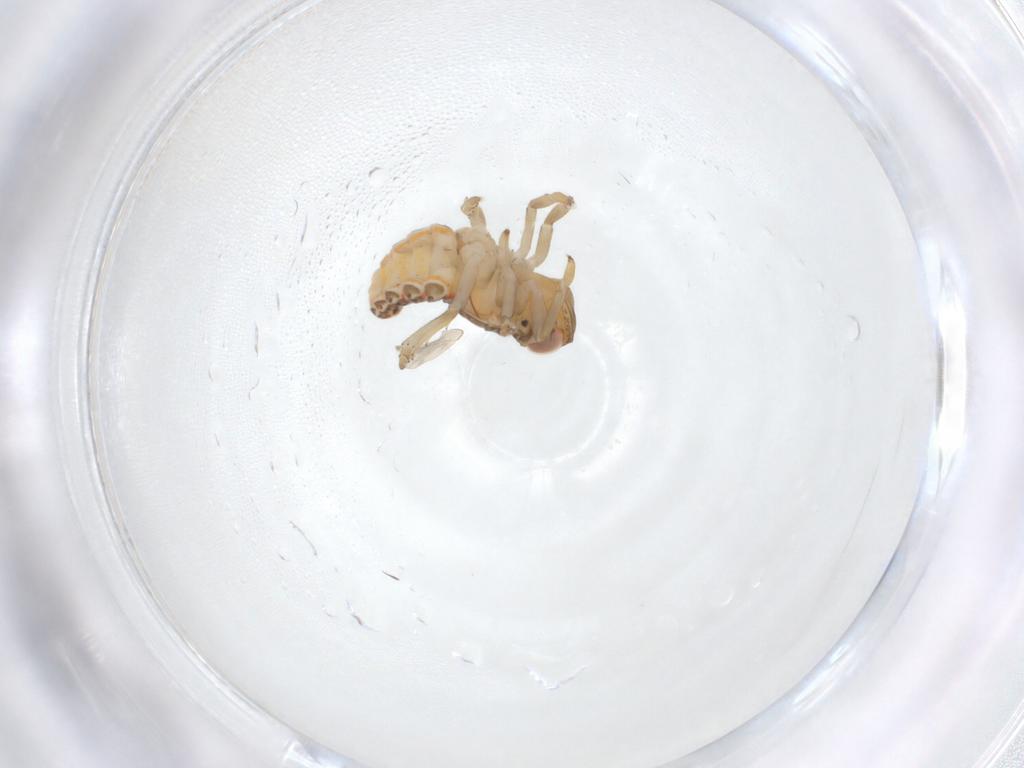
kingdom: Animalia
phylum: Arthropoda
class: Insecta
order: Hemiptera
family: Issidae
